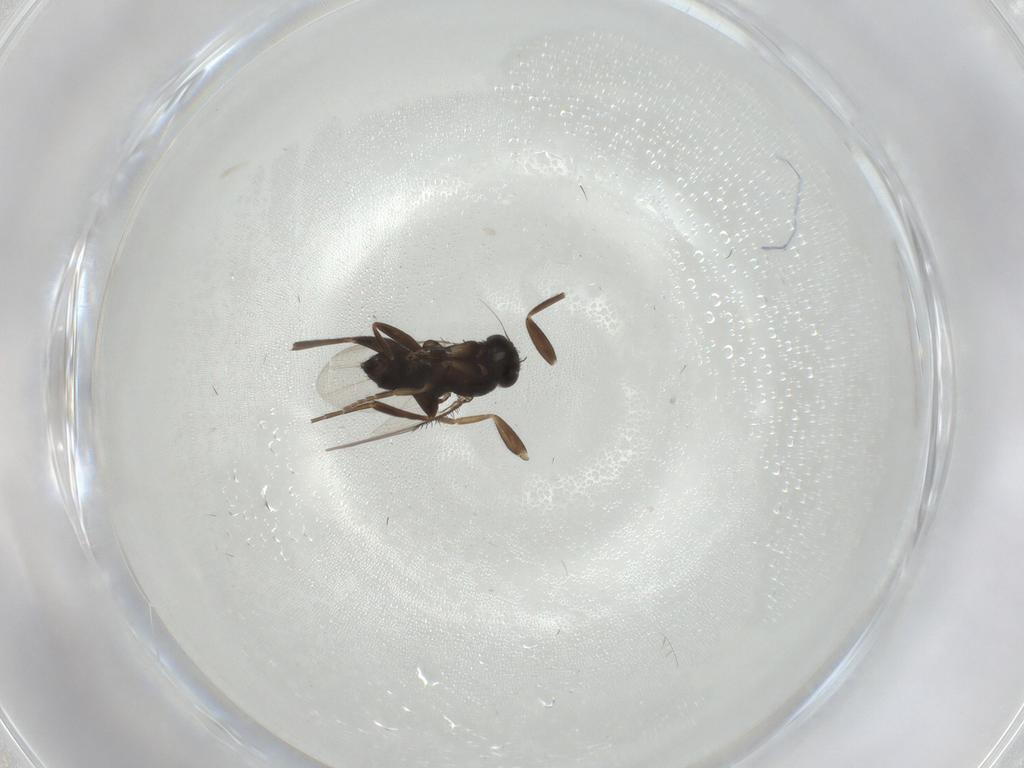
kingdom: Animalia
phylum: Arthropoda
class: Insecta
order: Diptera
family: Phoridae
